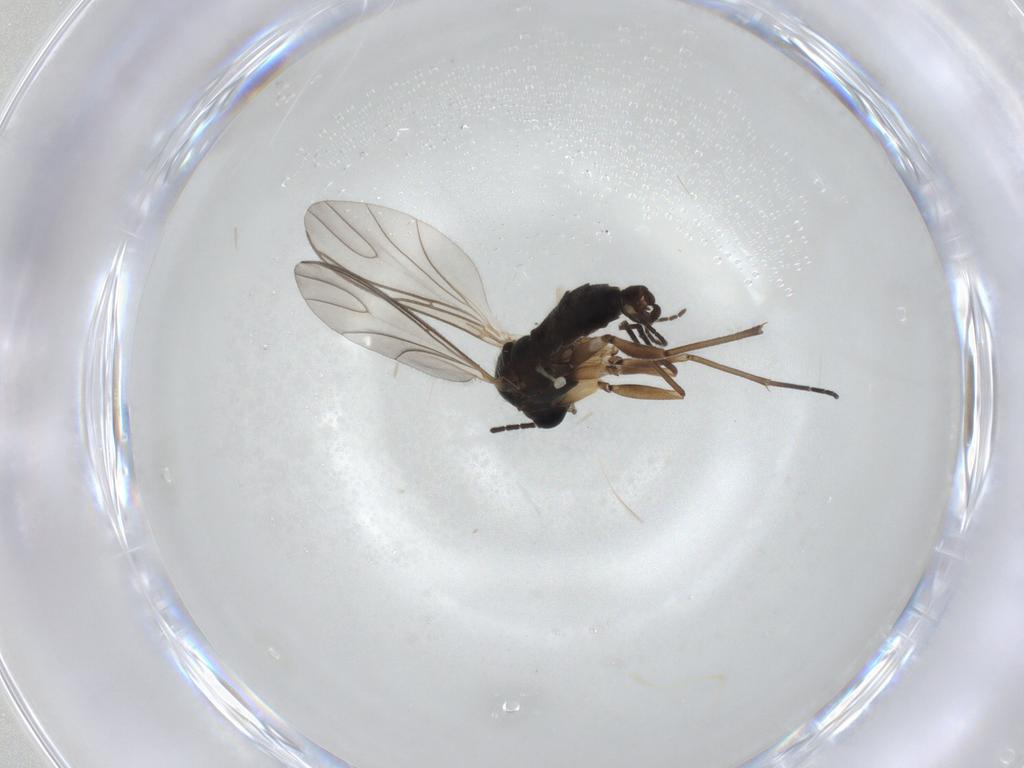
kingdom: Animalia
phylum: Arthropoda
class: Insecta
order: Diptera
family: Sciaridae
